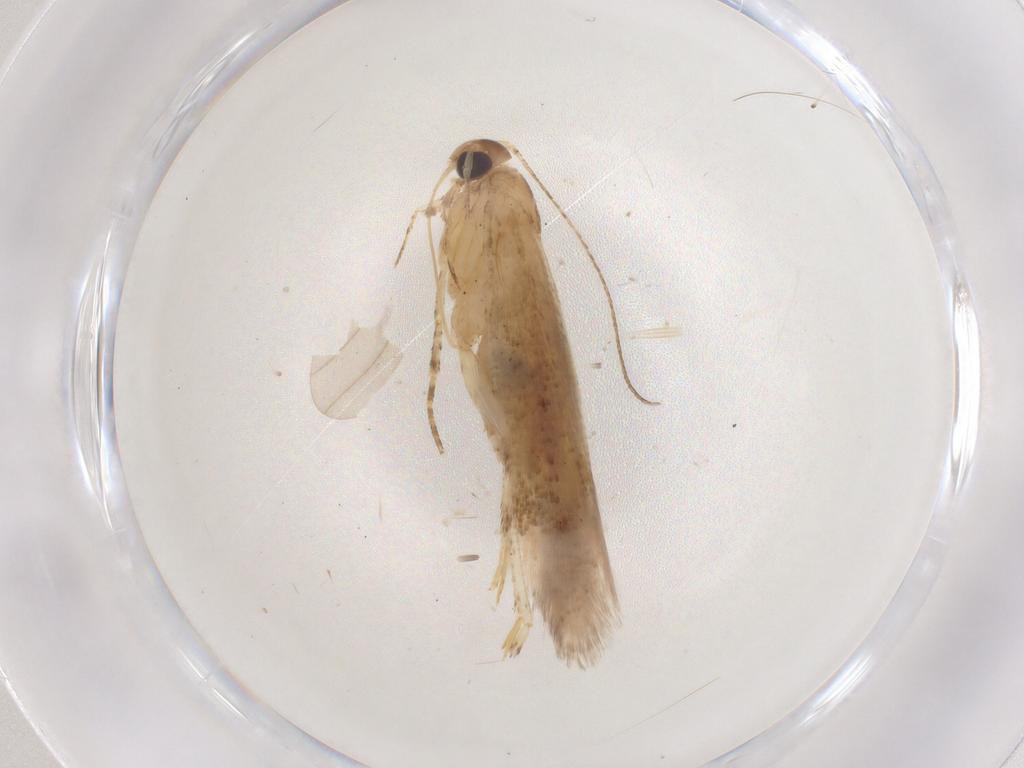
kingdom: Animalia
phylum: Arthropoda
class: Insecta
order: Lepidoptera
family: Gelechiidae
